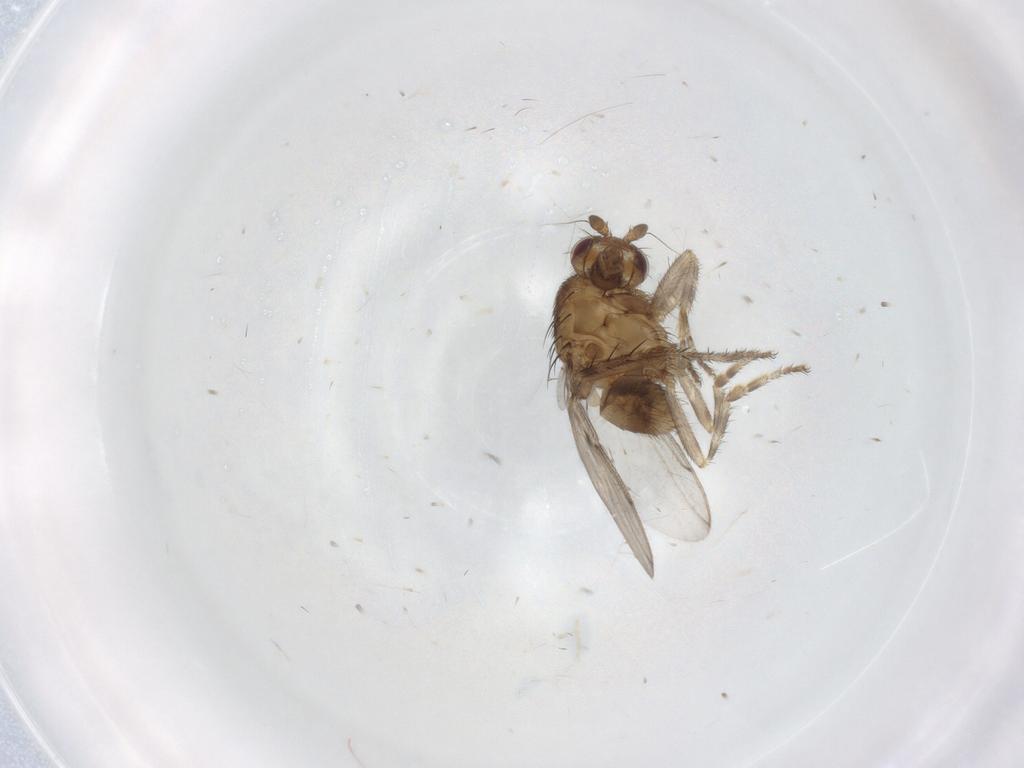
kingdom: Animalia
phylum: Arthropoda
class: Insecta
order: Diptera
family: Sphaeroceridae
